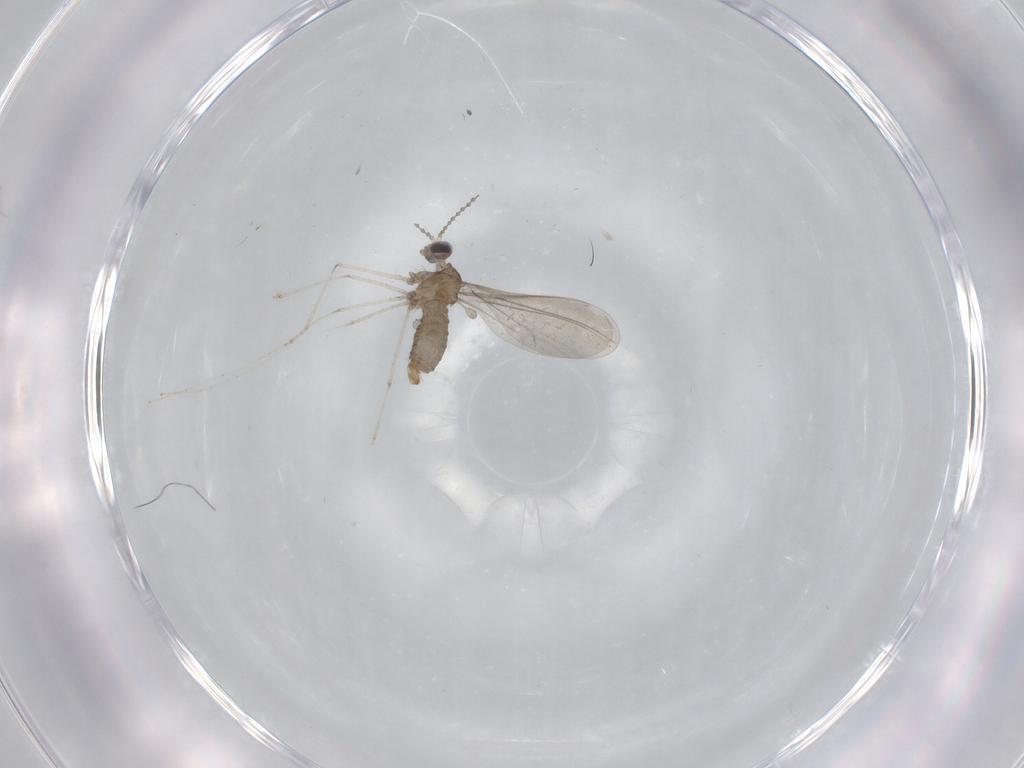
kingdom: Animalia
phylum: Arthropoda
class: Insecta
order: Diptera
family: Cecidomyiidae
